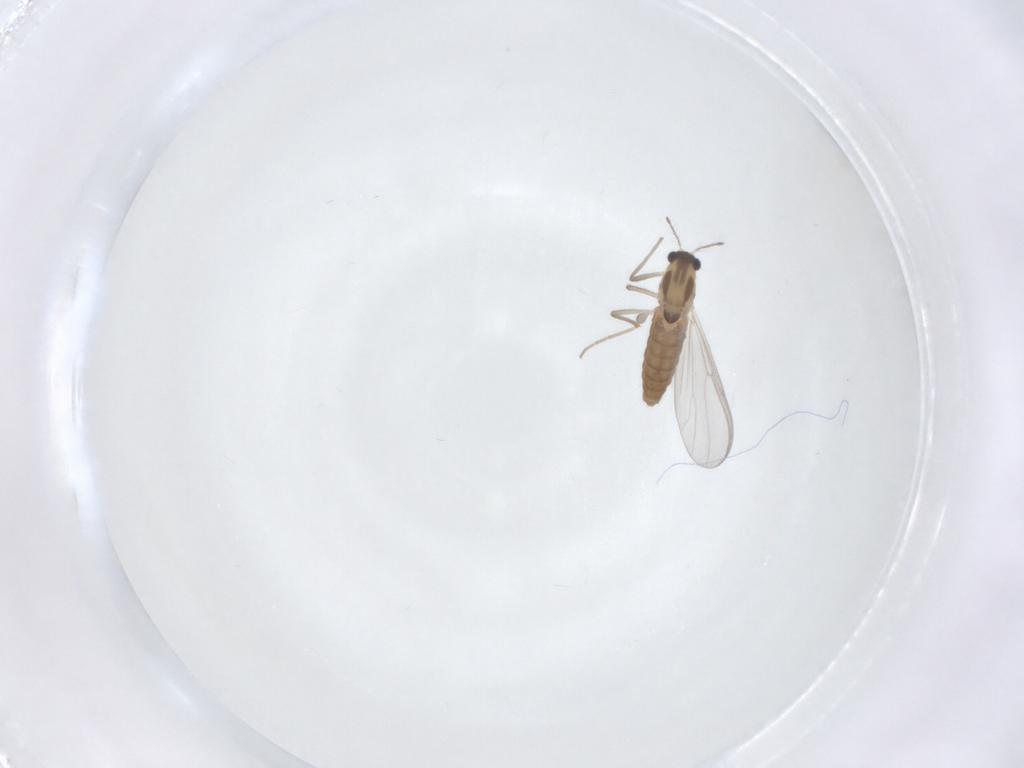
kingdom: Animalia
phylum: Arthropoda
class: Insecta
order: Diptera
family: Chironomidae
